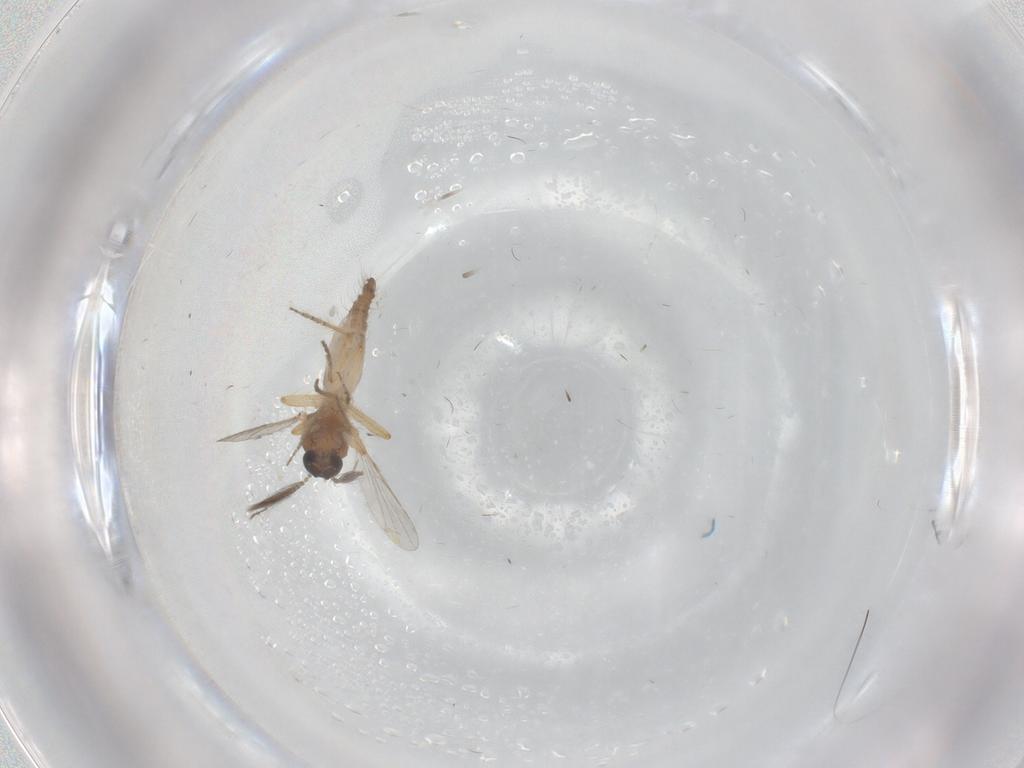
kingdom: Animalia
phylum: Arthropoda
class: Insecta
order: Diptera
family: Ceratopogonidae
